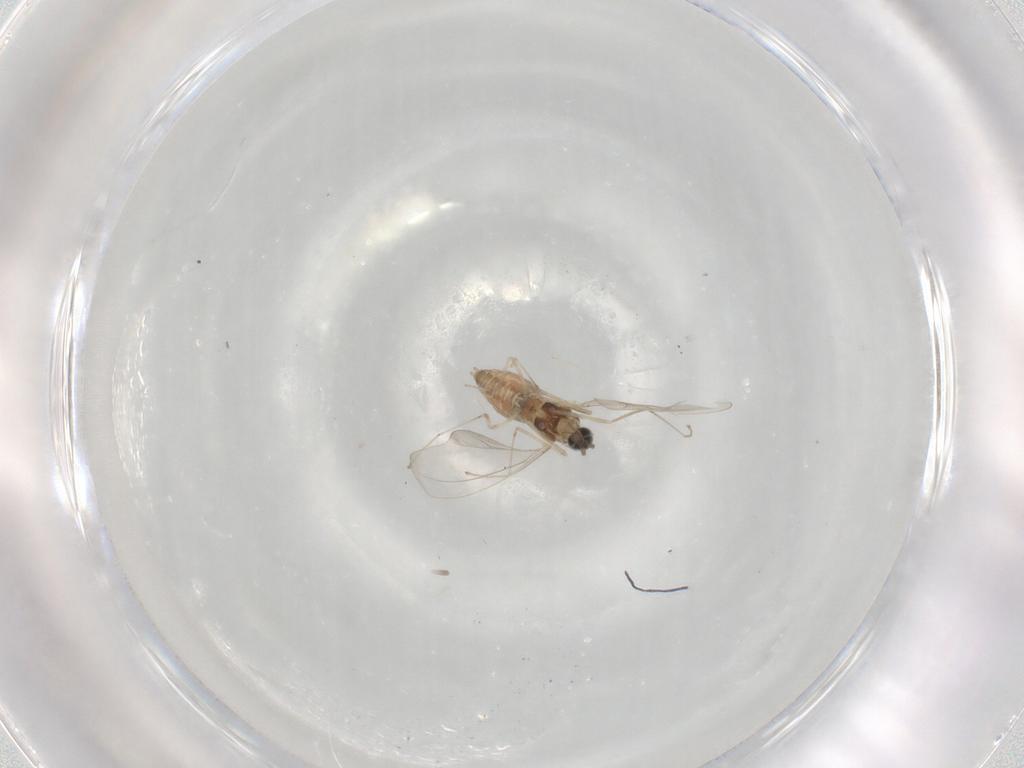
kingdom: Animalia
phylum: Arthropoda
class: Insecta
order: Diptera
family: Cecidomyiidae
